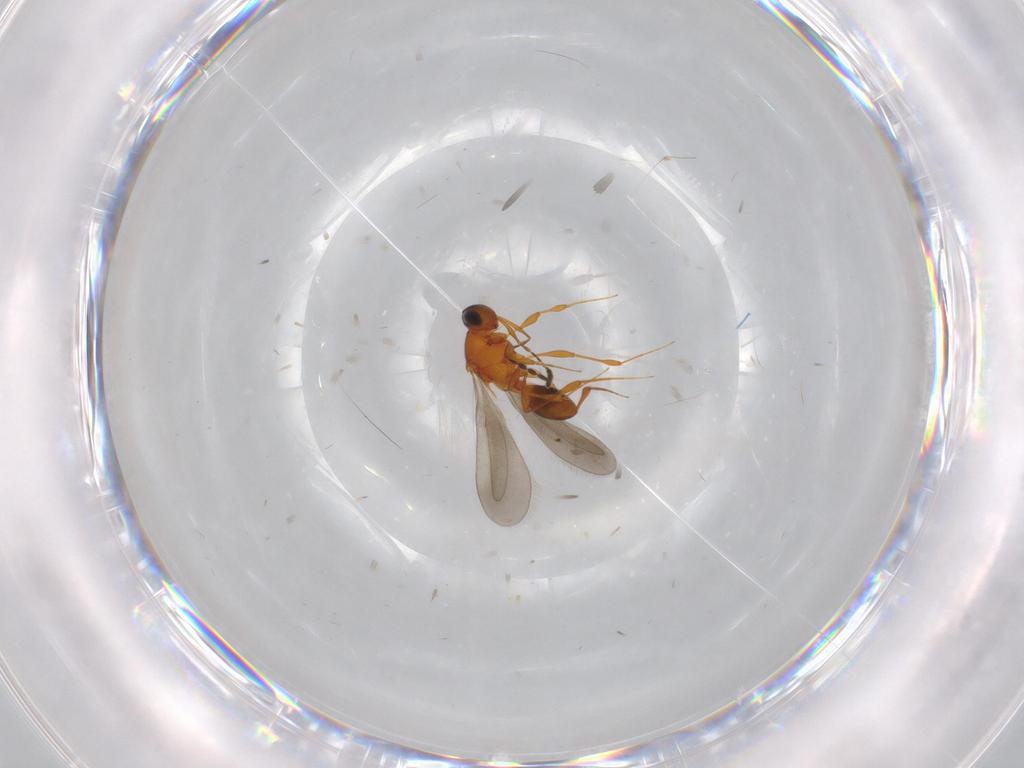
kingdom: Animalia
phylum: Arthropoda
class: Insecta
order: Hymenoptera
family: Platygastridae
